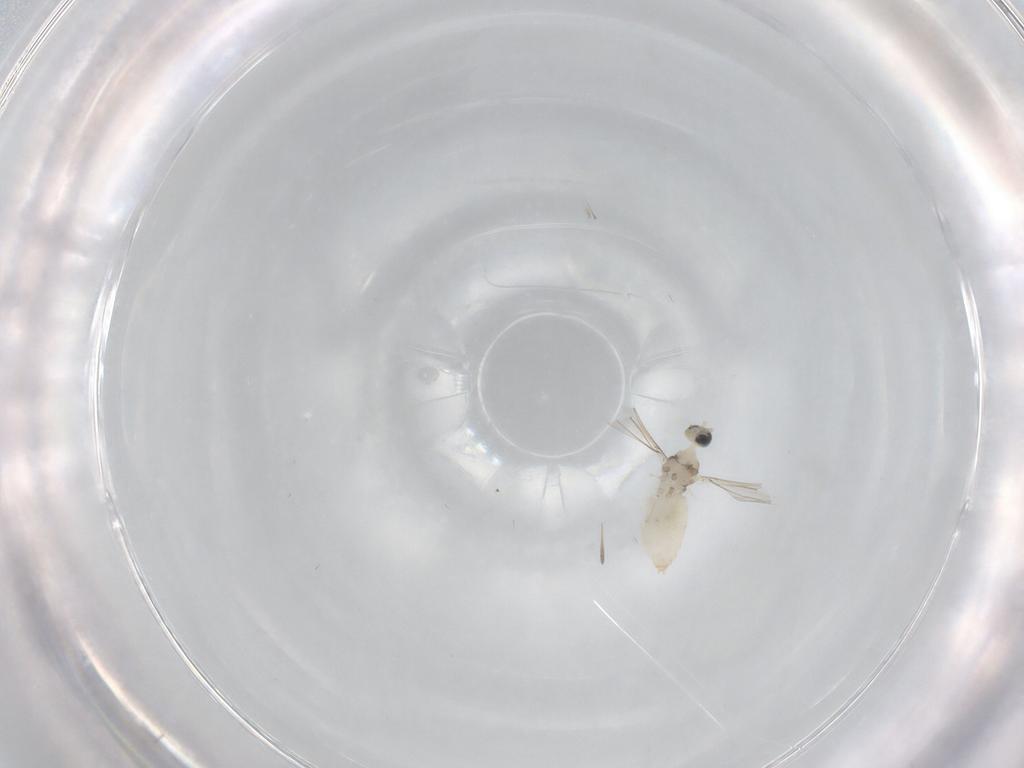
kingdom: Animalia
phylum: Arthropoda
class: Insecta
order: Diptera
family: Cecidomyiidae
